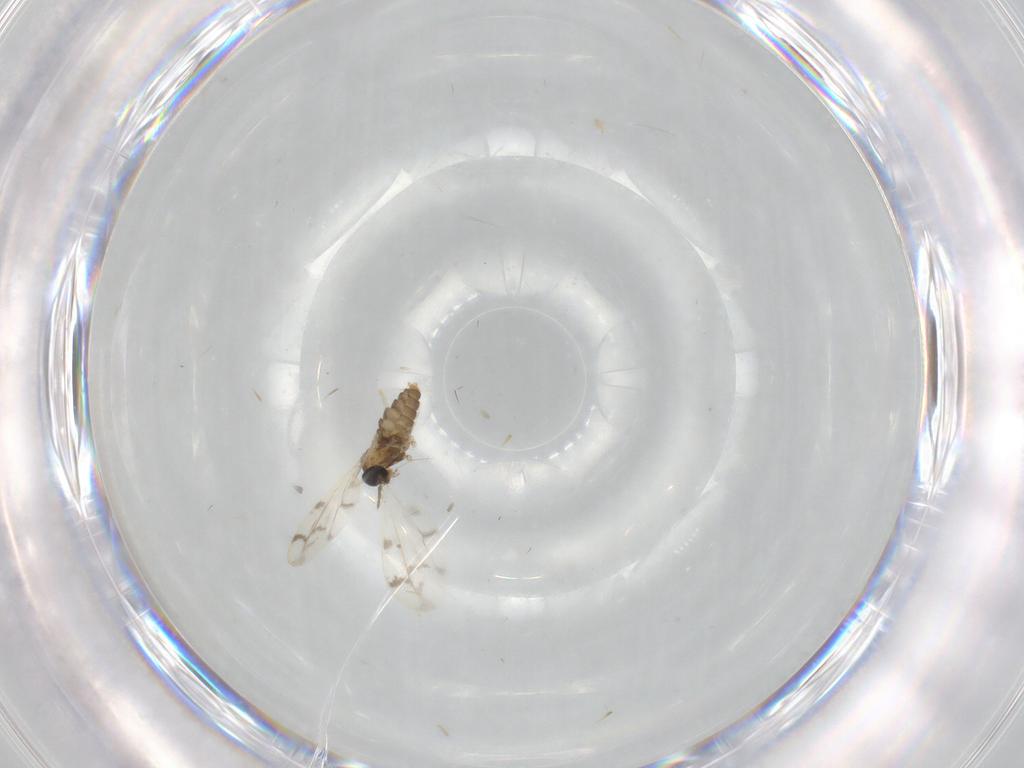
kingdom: Animalia
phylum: Arthropoda
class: Insecta
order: Diptera
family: Cecidomyiidae
